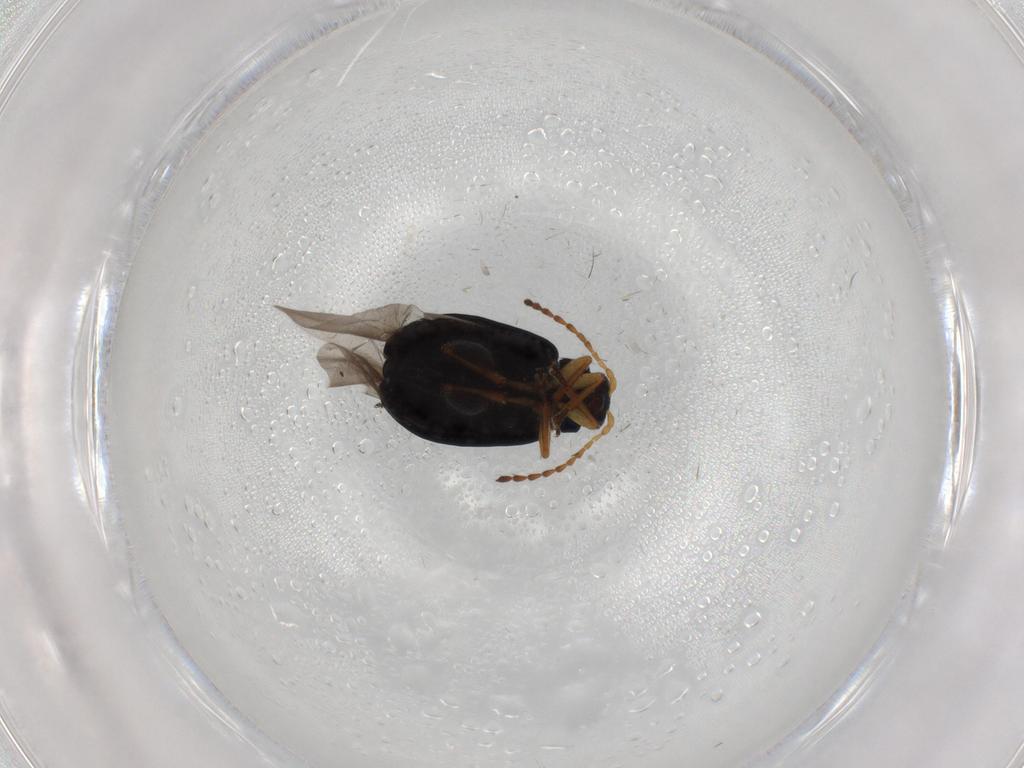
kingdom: Animalia
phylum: Arthropoda
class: Insecta
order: Coleoptera
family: Chrysomelidae
